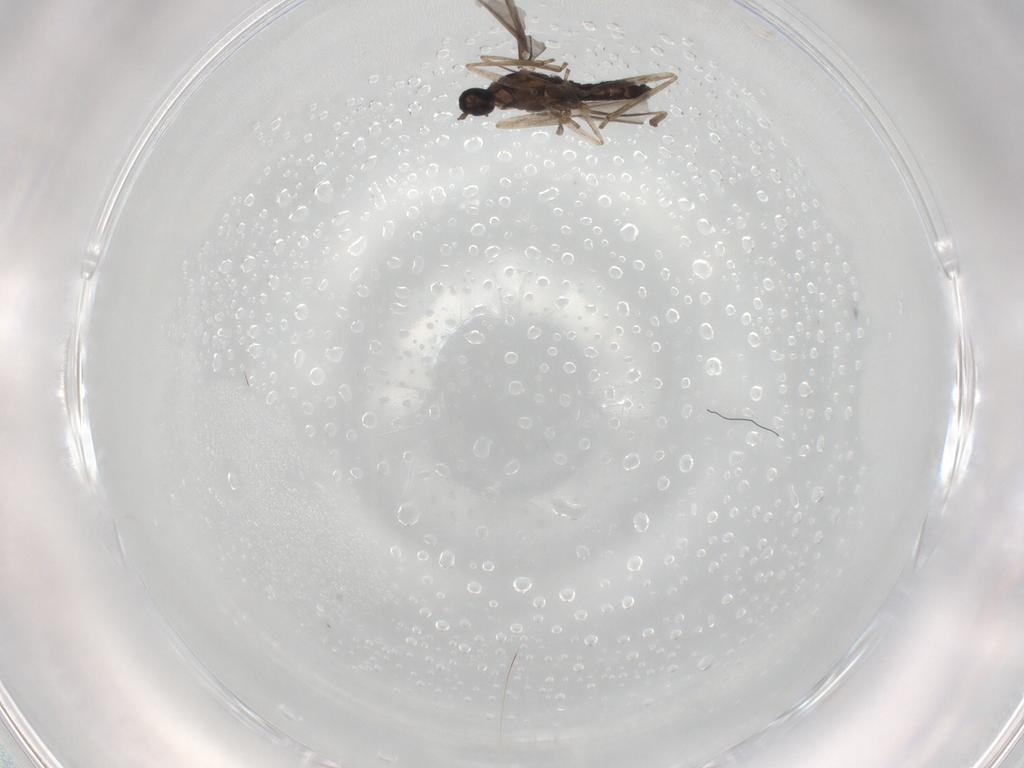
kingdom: Animalia
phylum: Arthropoda
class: Insecta
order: Diptera
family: Cecidomyiidae
